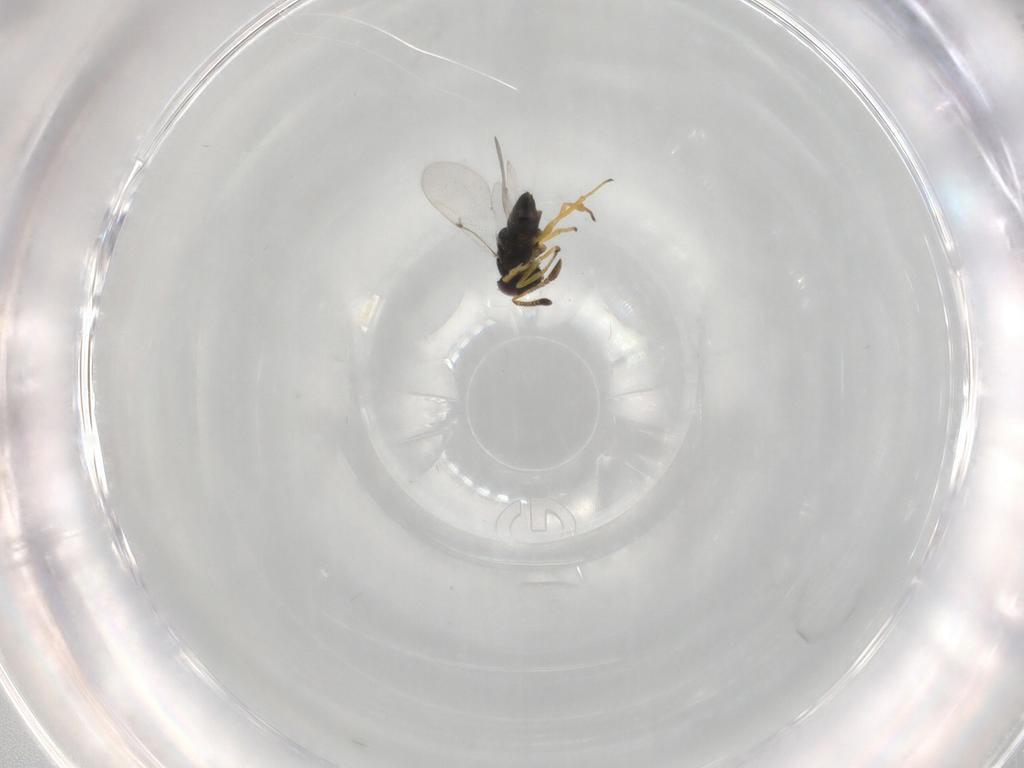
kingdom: Animalia
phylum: Arthropoda
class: Insecta
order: Hymenoptera
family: Encyrtidae
